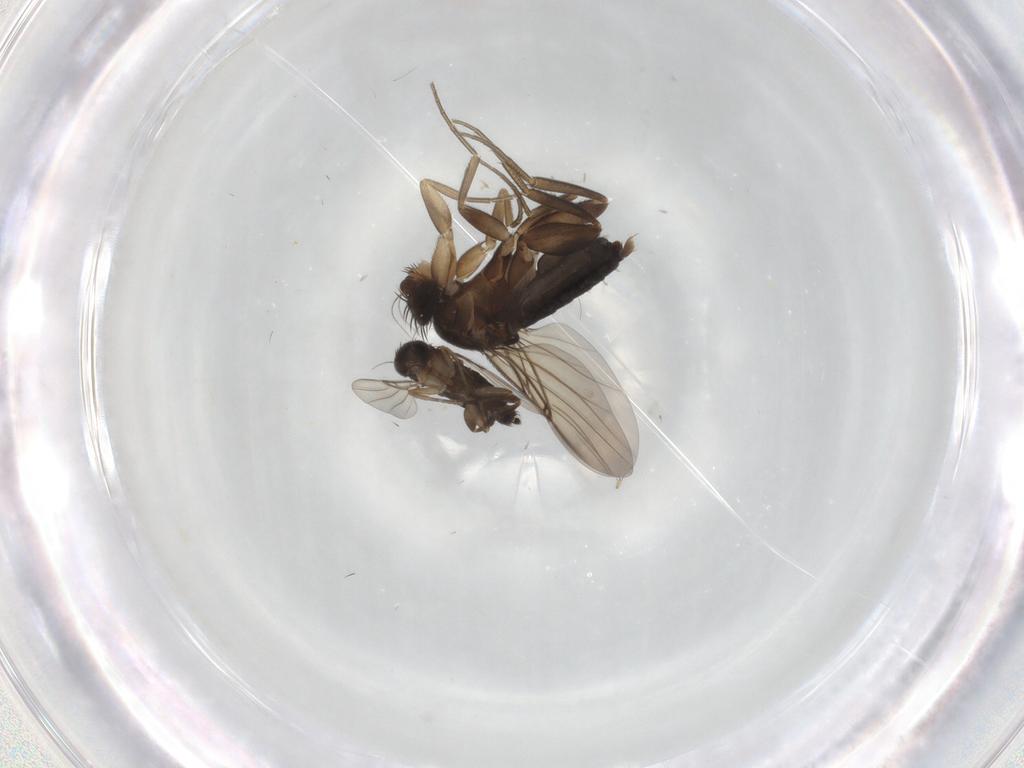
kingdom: Animalia
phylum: Arthropoda
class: Insecta
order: Diptera
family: Phoridae
